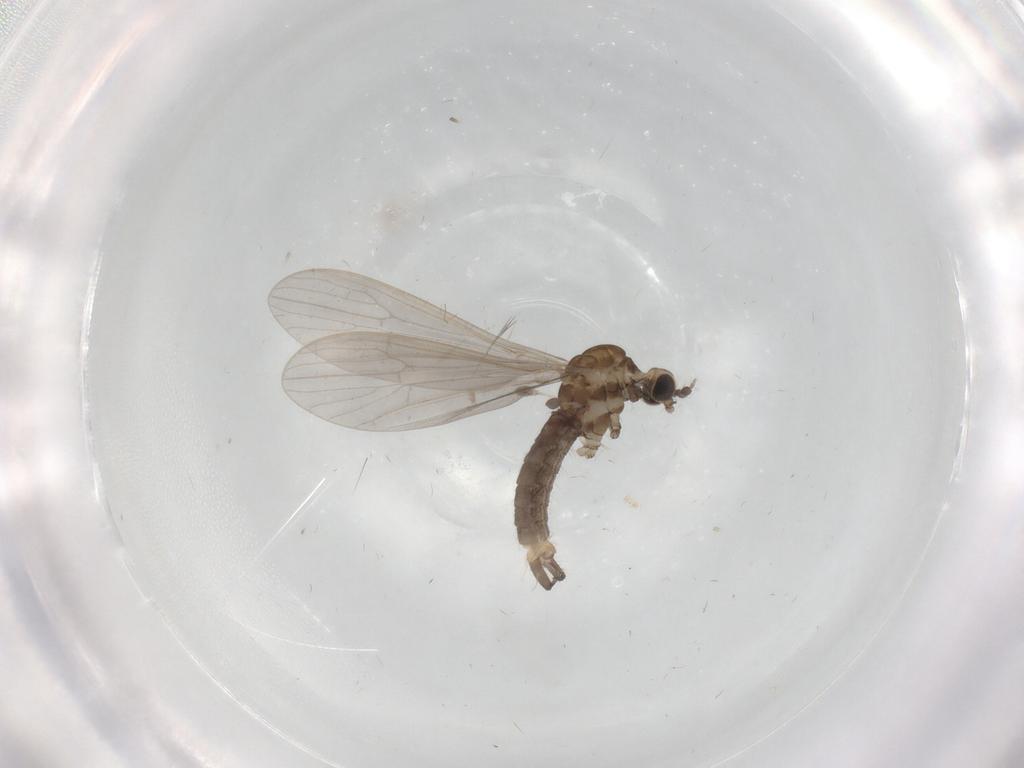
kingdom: Animalia
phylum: Arthropoda
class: Insecta
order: Diptera
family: Limoniidae
